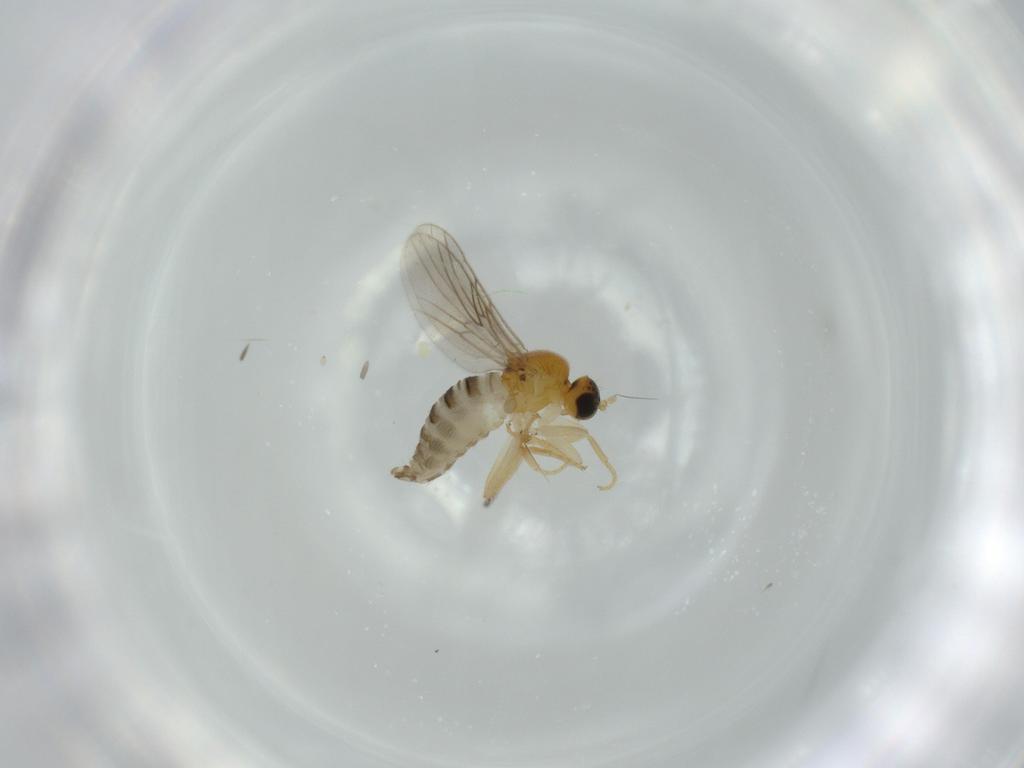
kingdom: Animalia
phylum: Arthropoda
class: Insecta
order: Diptera
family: Hybotidae
